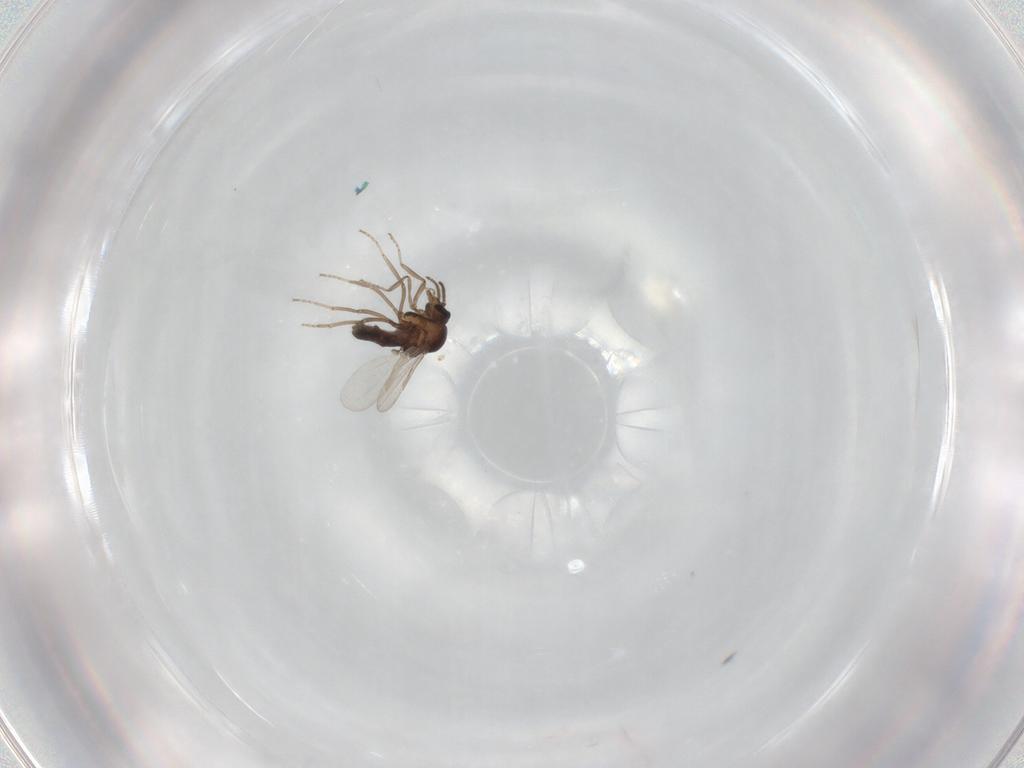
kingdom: Animalia
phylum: Arthropoda
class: Insecta
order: Diptera
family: Ceratopogonidae
